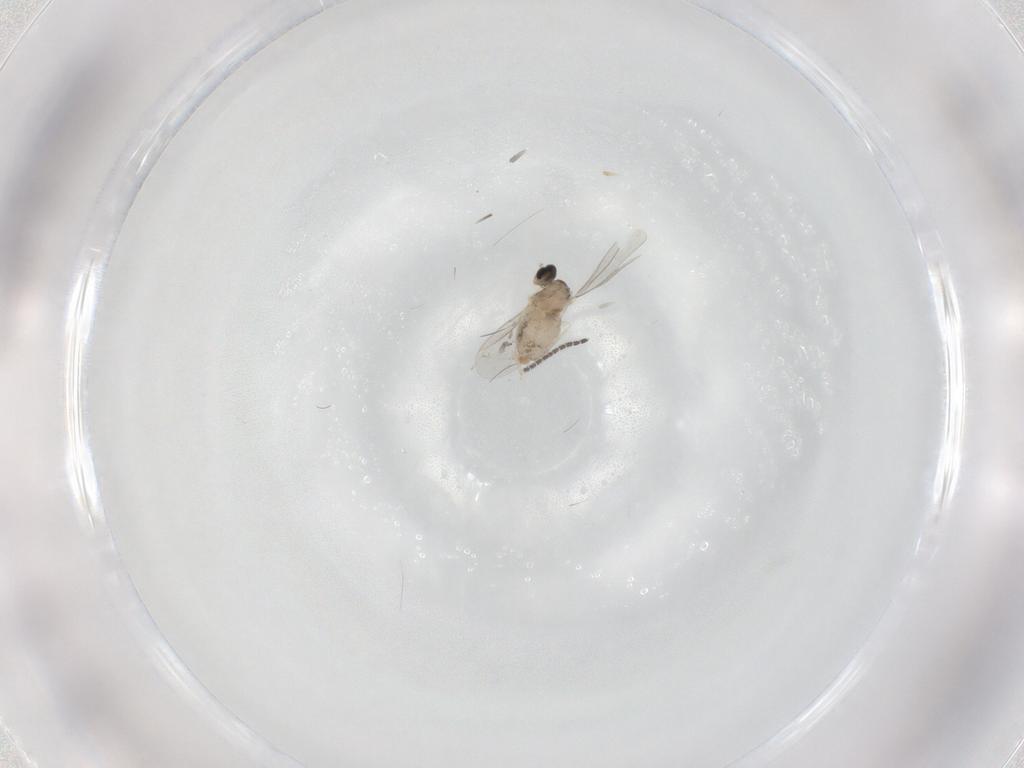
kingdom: Animalia
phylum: Arthropoda
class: Insecta
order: Diptera
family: Cecidomyiidae
